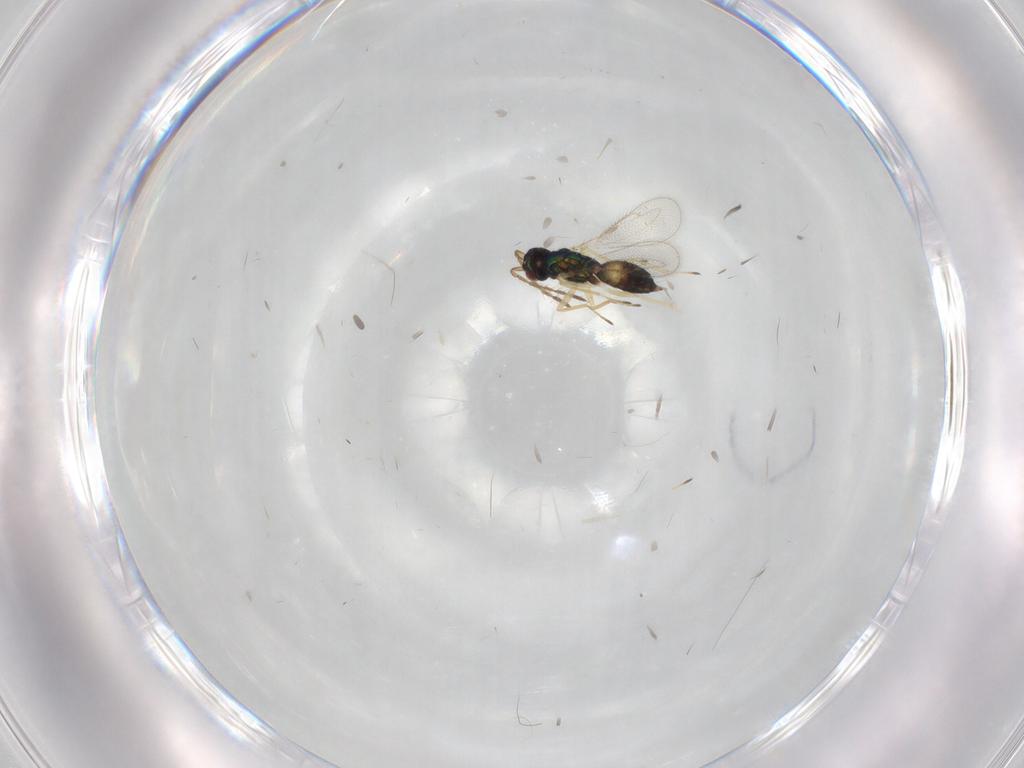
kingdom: Animalia
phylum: Arthropoda
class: Insecta
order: Hymenoptera
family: Eulophidae
